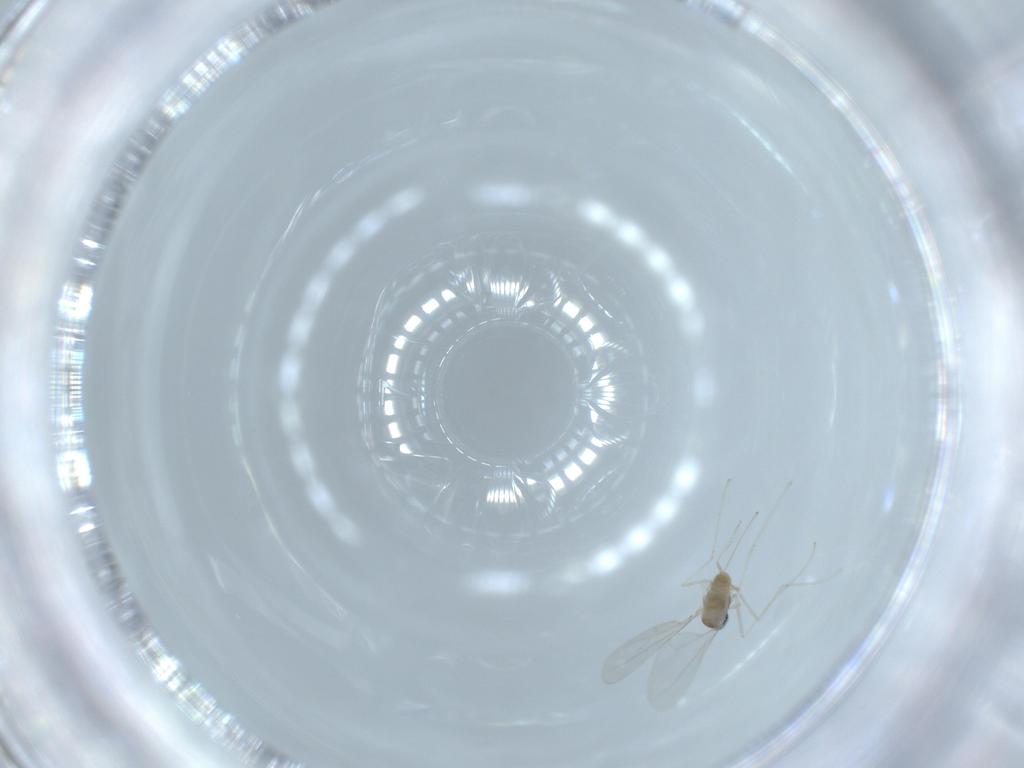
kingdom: Animalia
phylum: Arthropoda
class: Insecta
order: Diptera
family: Cecidomyiidae
